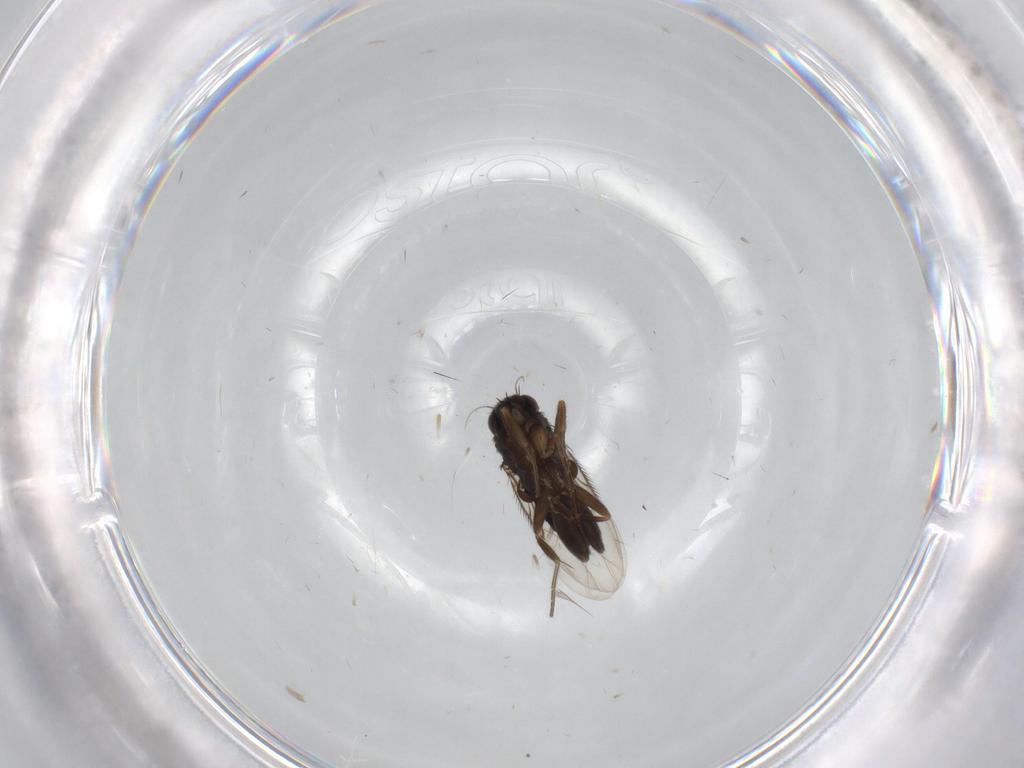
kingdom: Animalia
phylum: Arthropoda
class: Insecta
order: Diptera
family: Phoridae
